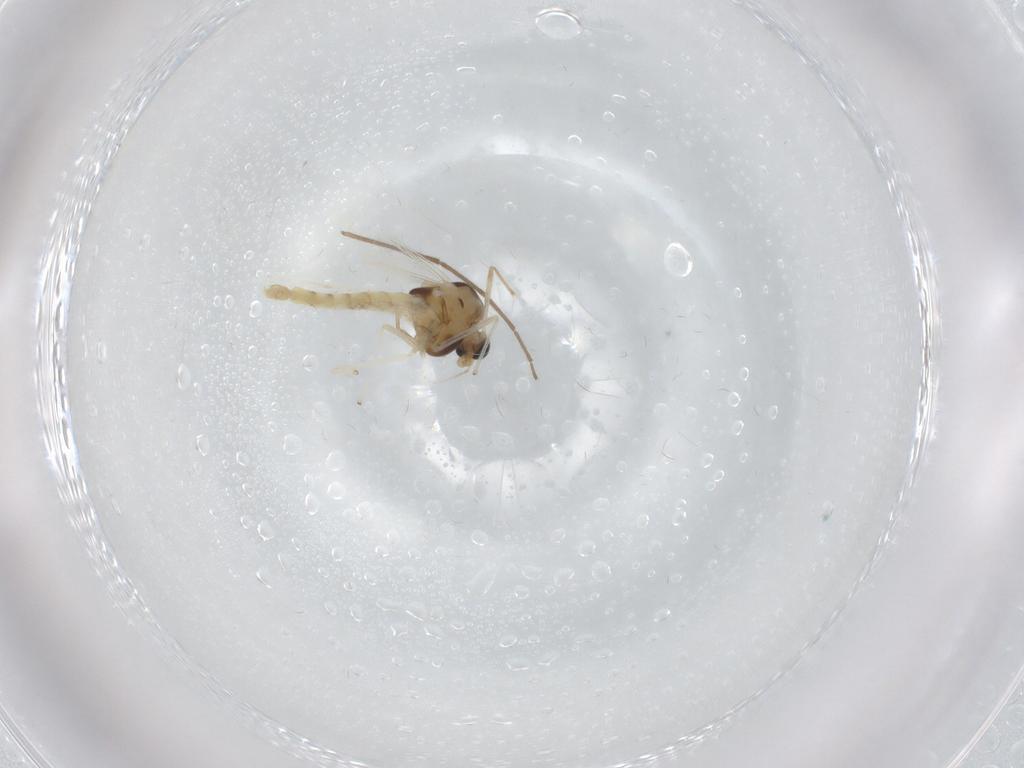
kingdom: Animalia
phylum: Arthropoda
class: Insecta
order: Diptera
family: Chironomidae
